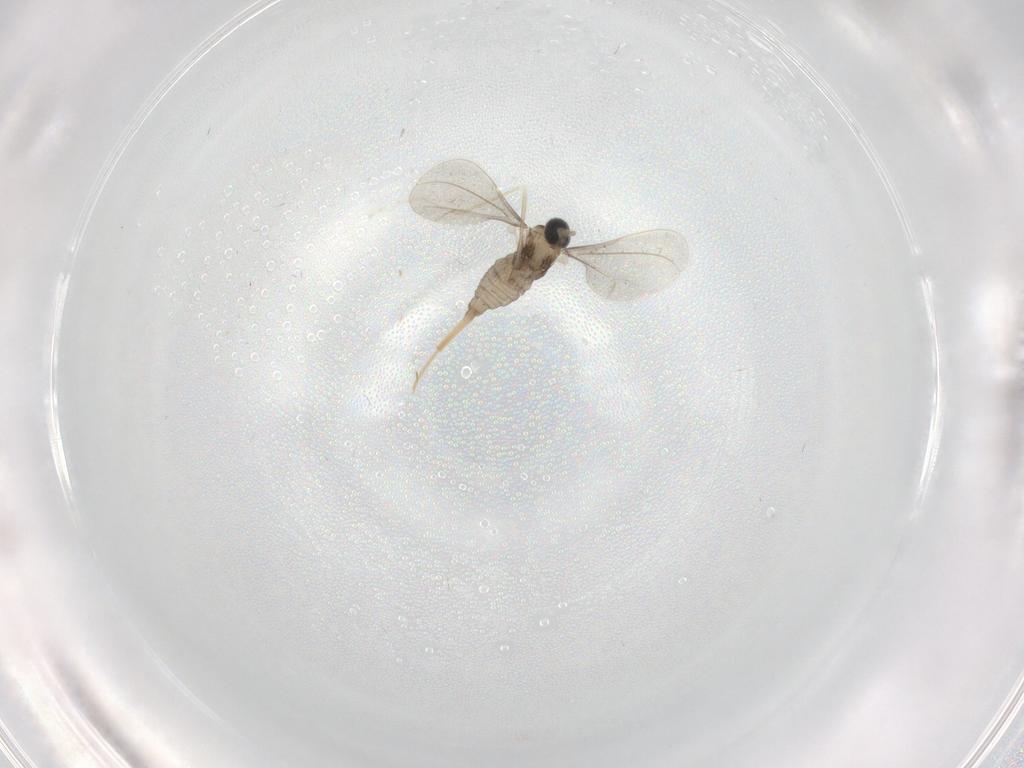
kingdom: Animalia
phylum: Arthropoda
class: Insecta
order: Diptera
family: Cecidomyiidae
